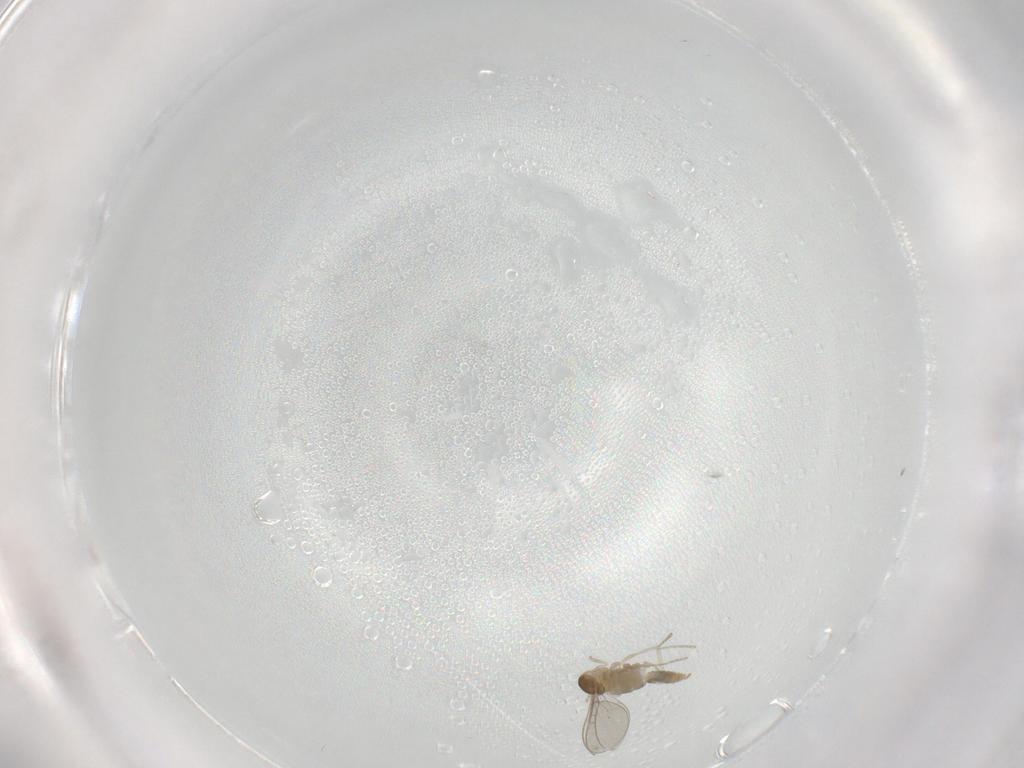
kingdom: Animalia
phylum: Arthropoda
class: Insecta
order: Diptera
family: Cecidomyiidae
